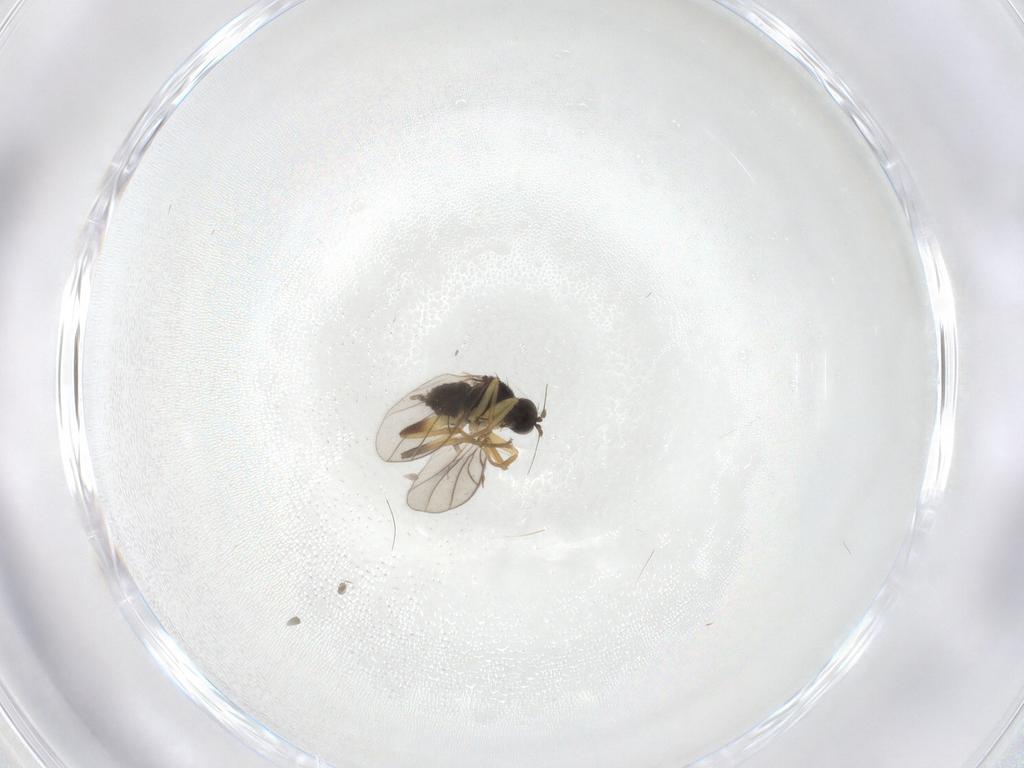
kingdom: Animalia
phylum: Arthropoda
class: Insecta
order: Diptera
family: Hybotidae
